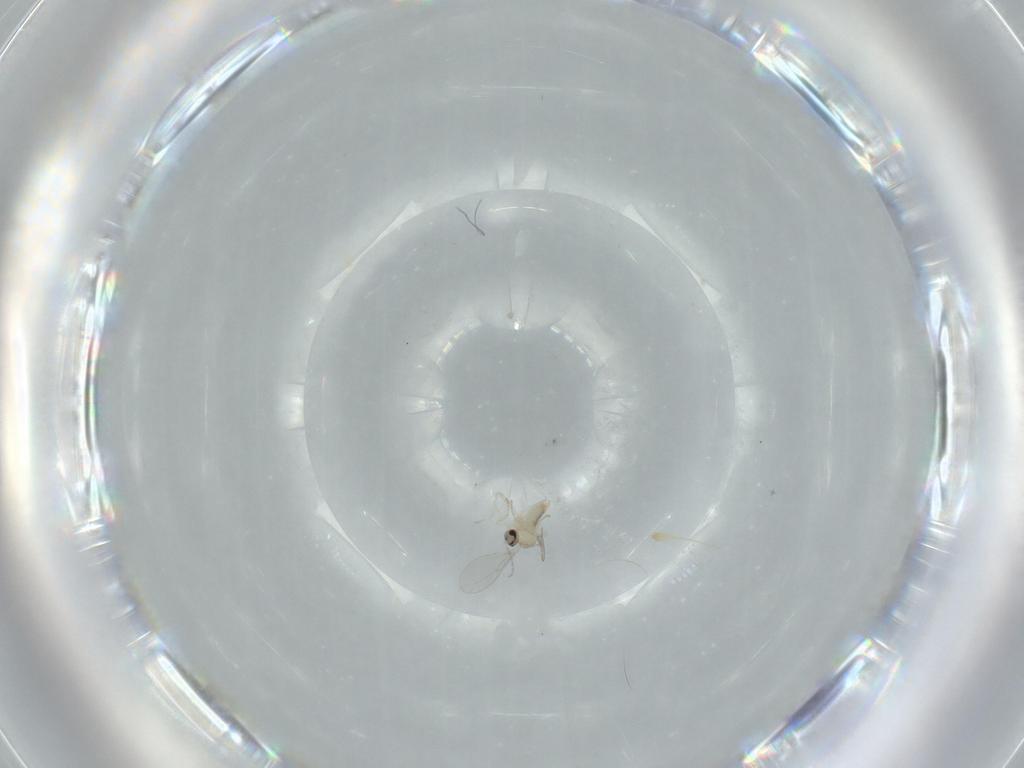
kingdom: Animalia
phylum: Arthropoda
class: Insecta
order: Diptera
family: Cecidomyiidae
